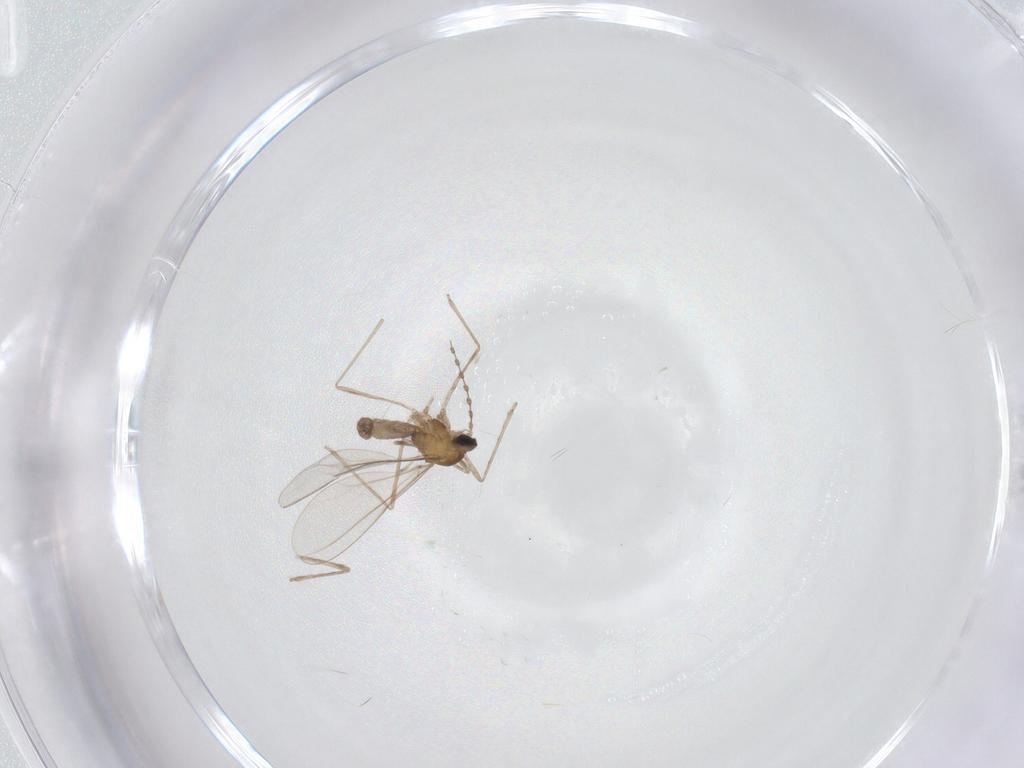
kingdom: Animalia
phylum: Arthropoda
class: Insecta
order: Diptera
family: Cecidomyiidae
